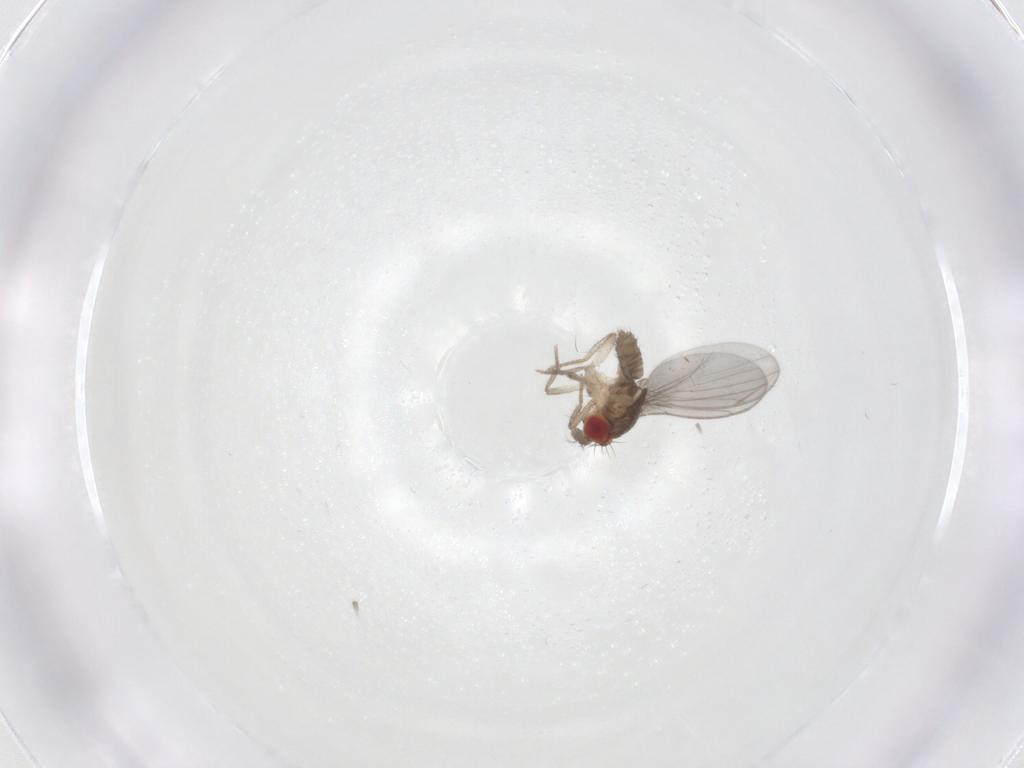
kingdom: Animalia
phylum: Arthropoda
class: Insecta
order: Diptera
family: Drosophilidae
